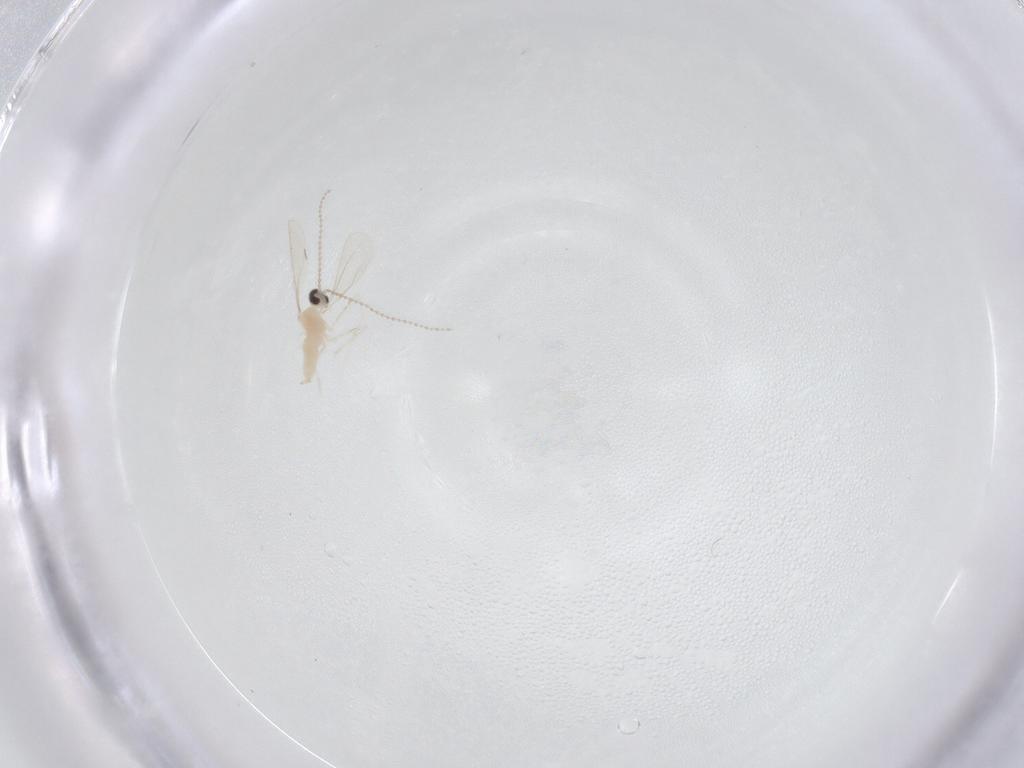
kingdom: Animalia
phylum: Arthropoda
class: Insecta
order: Diptera
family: Cecidomyiidae
